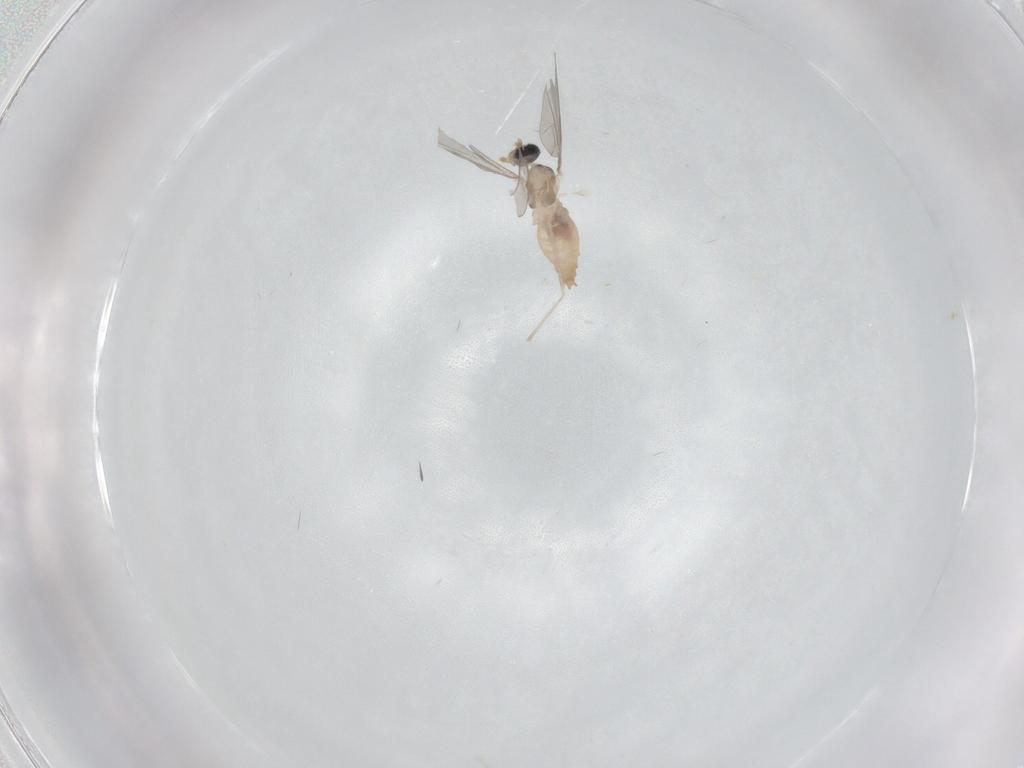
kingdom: Animalia
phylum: Arthropoda
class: Insecta
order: Diptera
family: Cecidomyiidae
